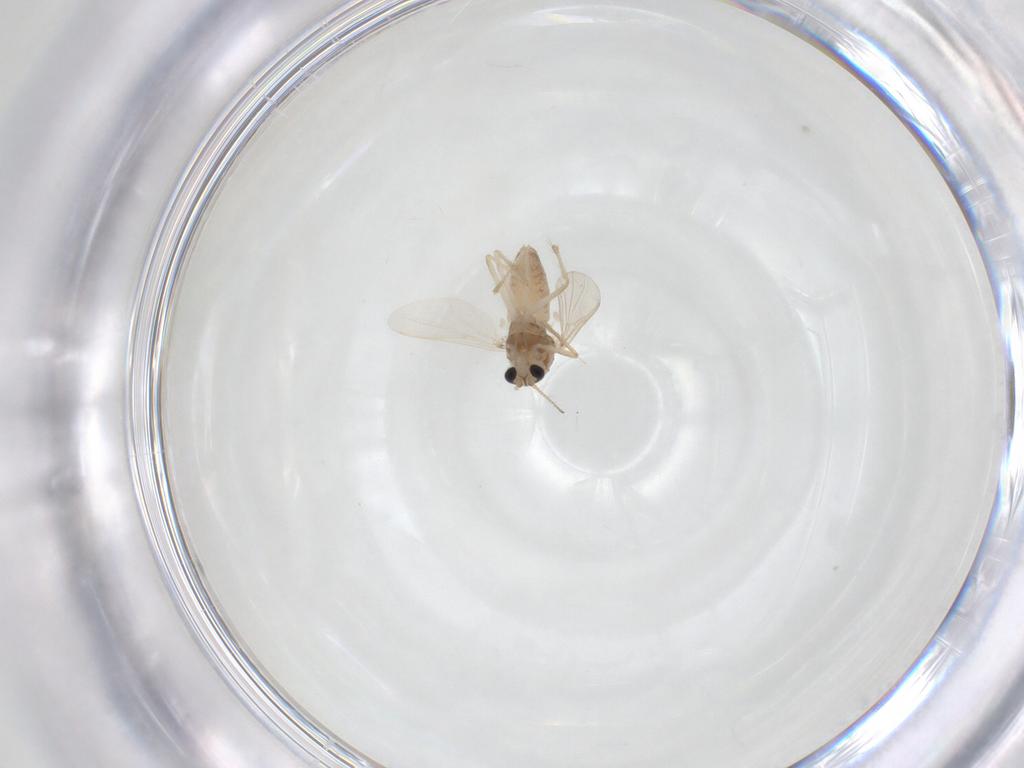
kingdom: Animalia
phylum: Arthropoda
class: Insecta
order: Diptera
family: Chironomidae
